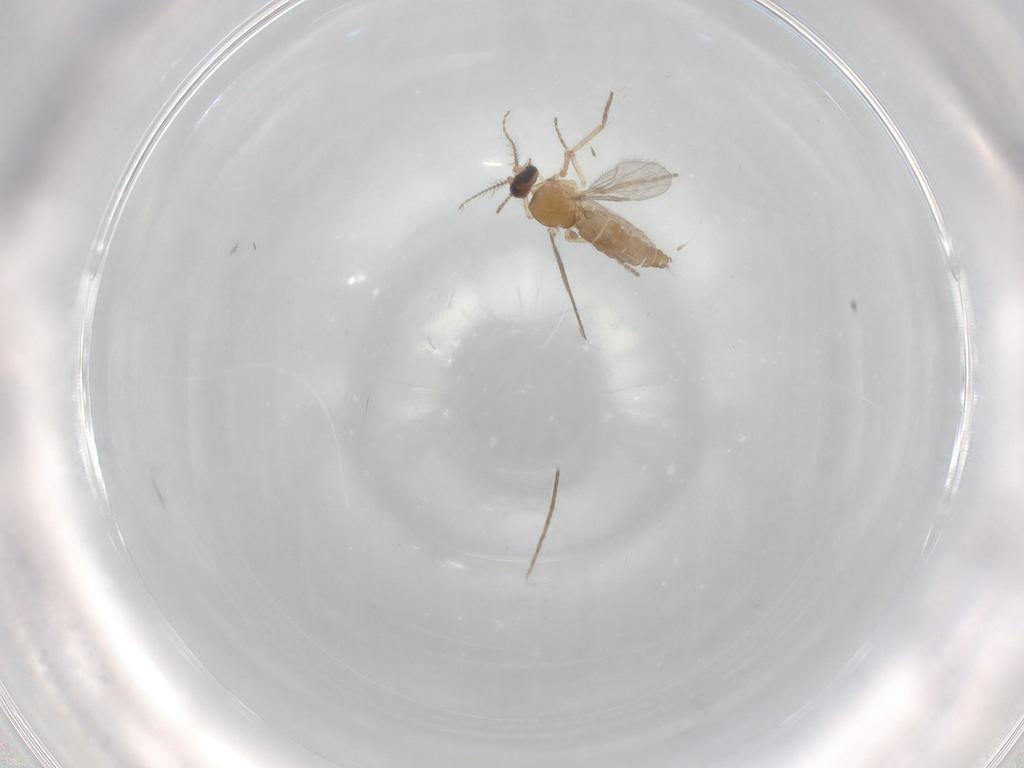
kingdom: Animalia
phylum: Arthropoda
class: Insecta
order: Diptera
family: Ceratopogonidae
